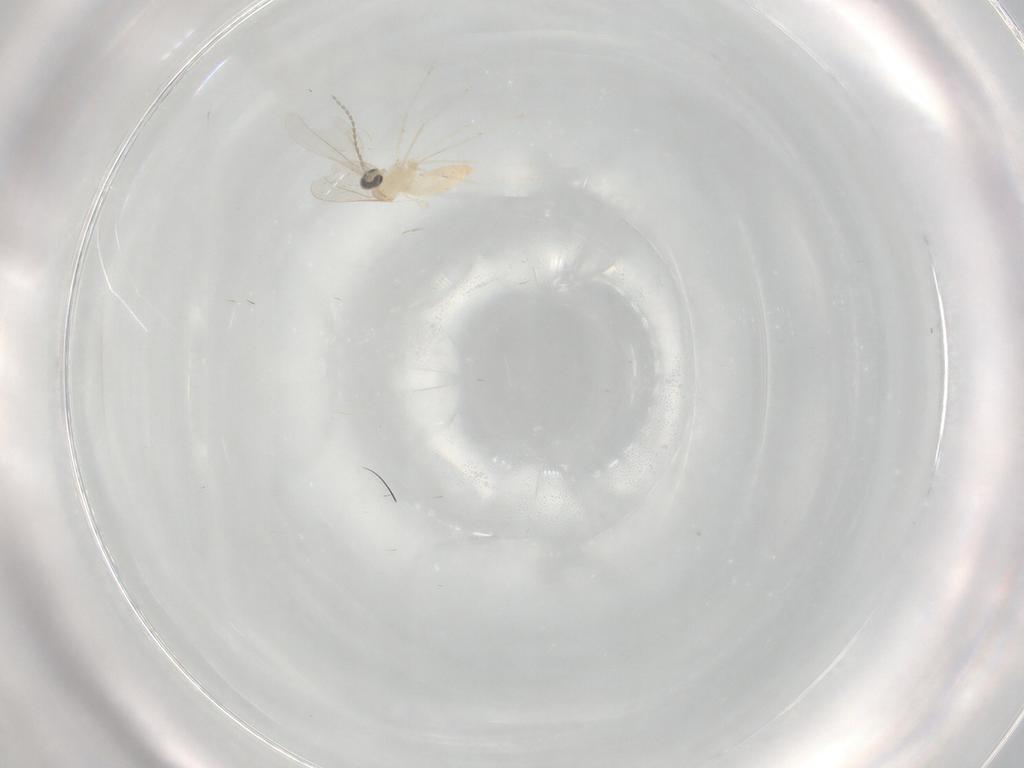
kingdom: Animalia
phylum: Arthropoda
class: Insecta
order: Diptera
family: Cecidomyiidae
